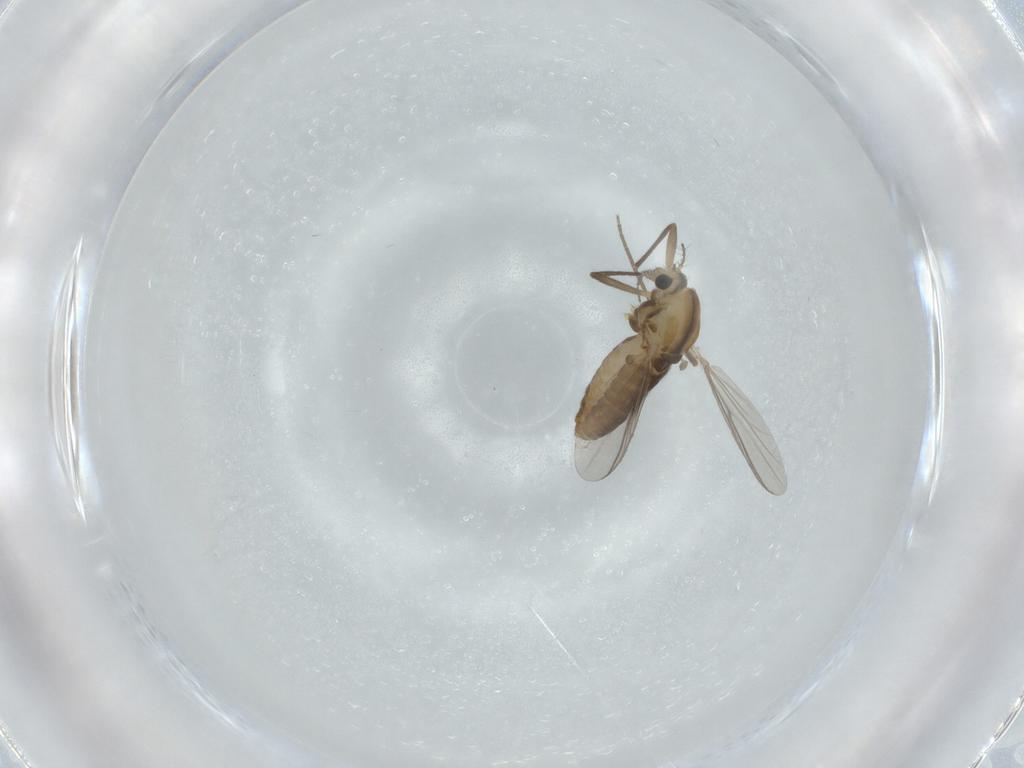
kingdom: Animalia
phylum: Arthropoda
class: Insecta
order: Diptera
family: Chironomidae
